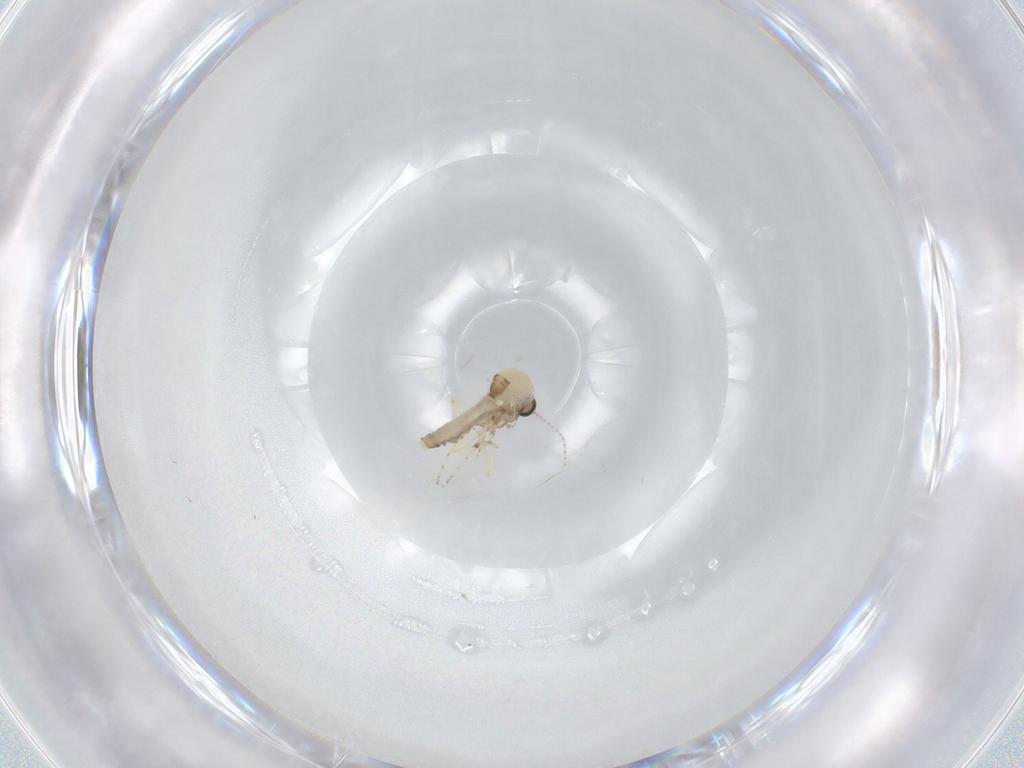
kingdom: Animalia
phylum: Arthropoda
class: Insecta
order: Diptera
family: Ceratopogonidae
